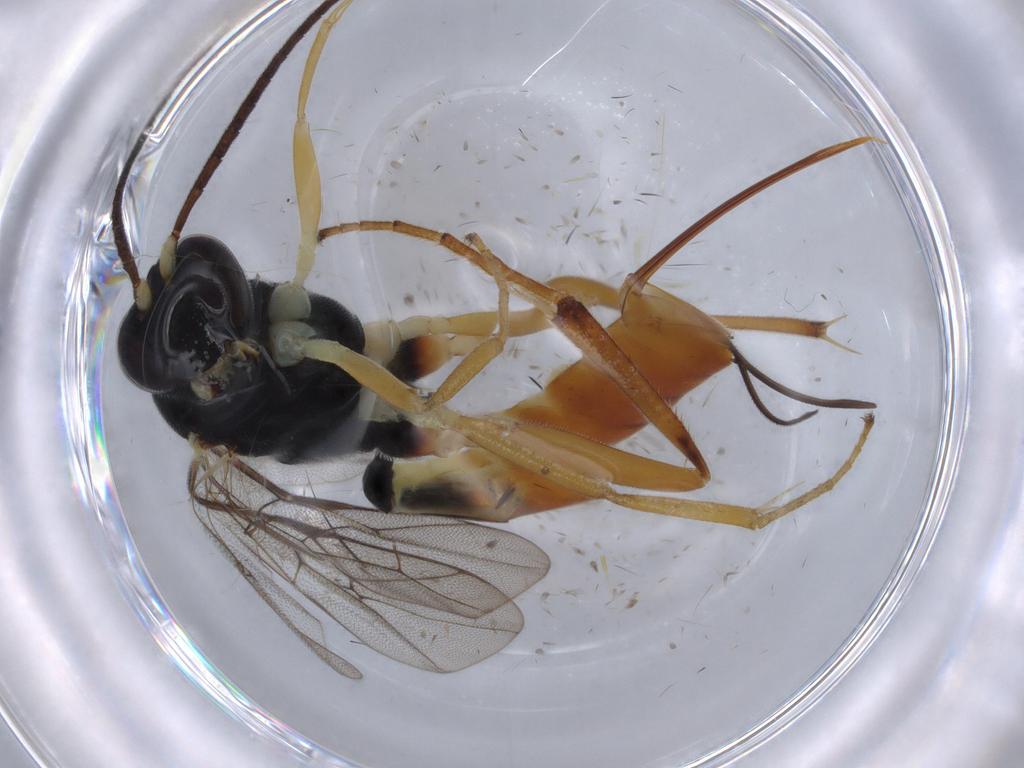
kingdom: Animalia
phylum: Arthropoda
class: Insecta
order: Hymenoptera
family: Ichneumonidae
